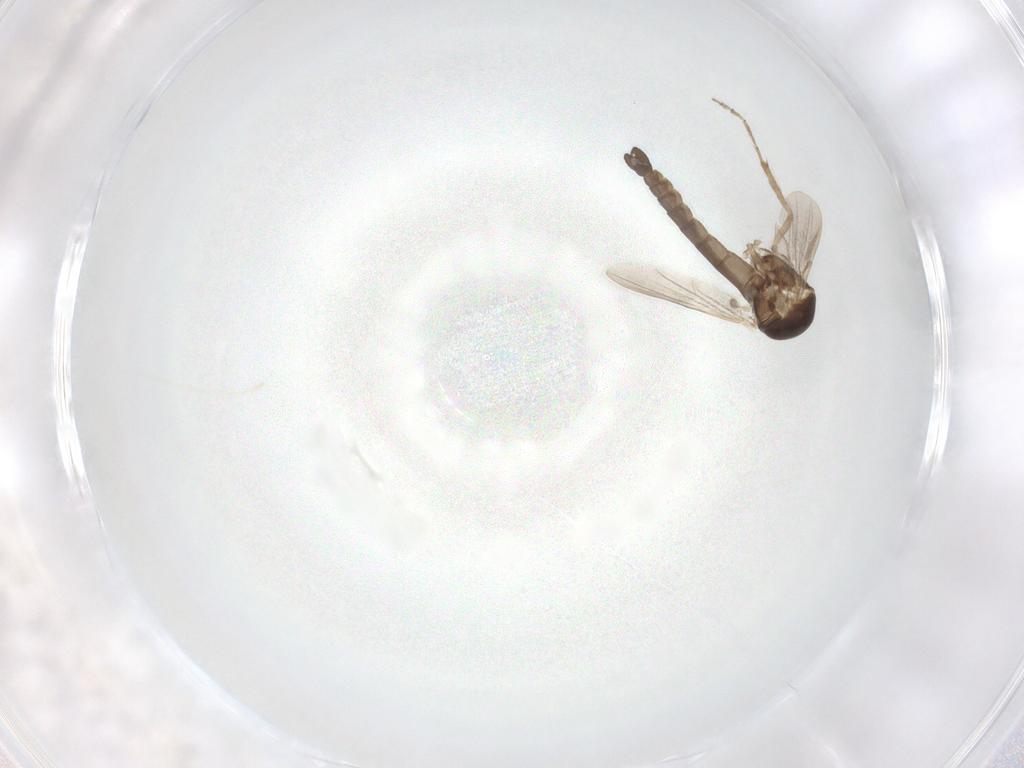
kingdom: Animalia
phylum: Arthropoda
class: Insecta
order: Diptera
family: Ceratopogonidae
